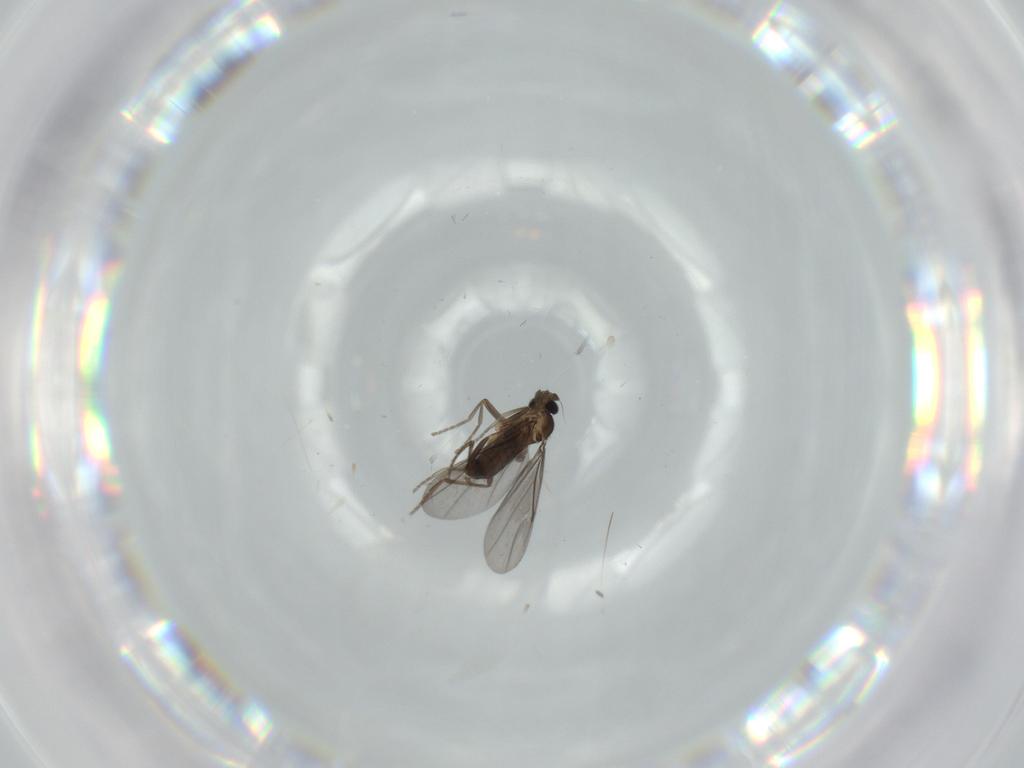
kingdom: Animalia
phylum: Arthropoda
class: Insecta
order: Diptera
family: Phoridae
